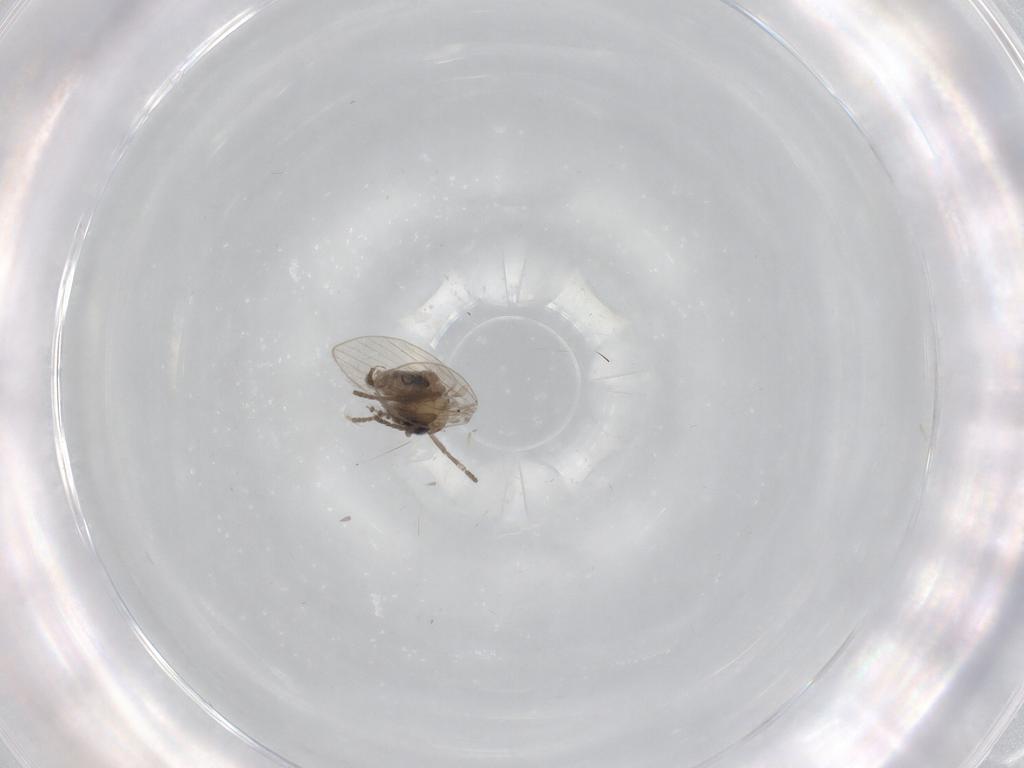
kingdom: Animalia
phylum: Arthropoda
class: Insecta
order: Diptera
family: Psychodidae
